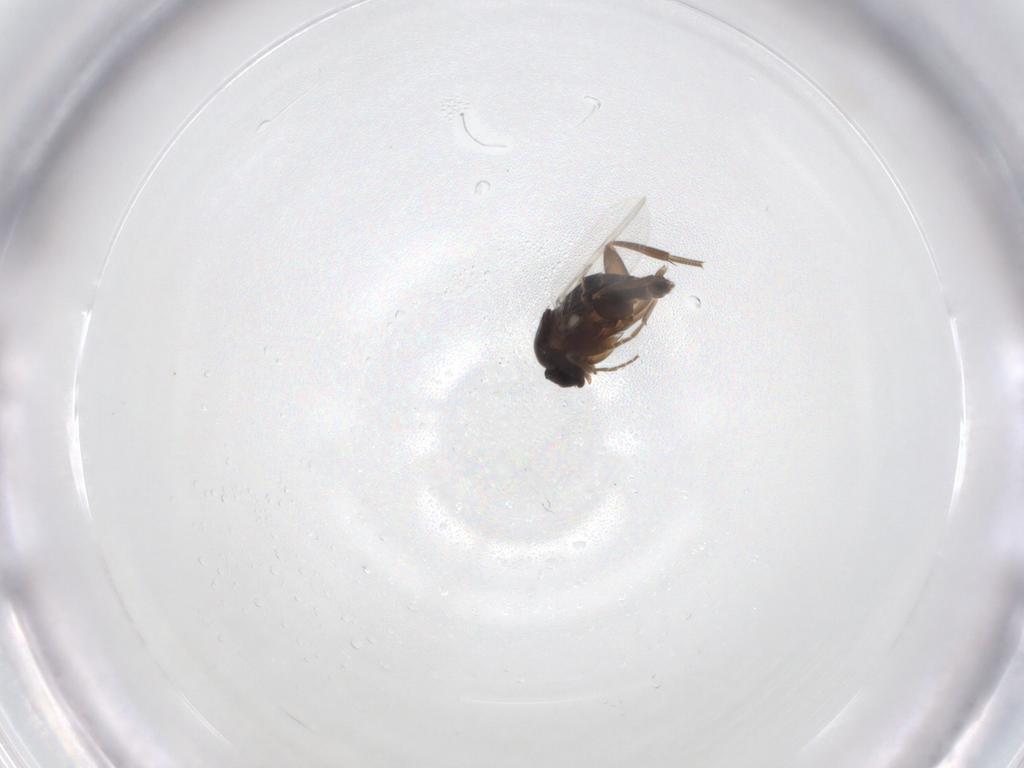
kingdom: Animalia
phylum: Arthropoda
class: Insecta
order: Diptera
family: Phoridae
